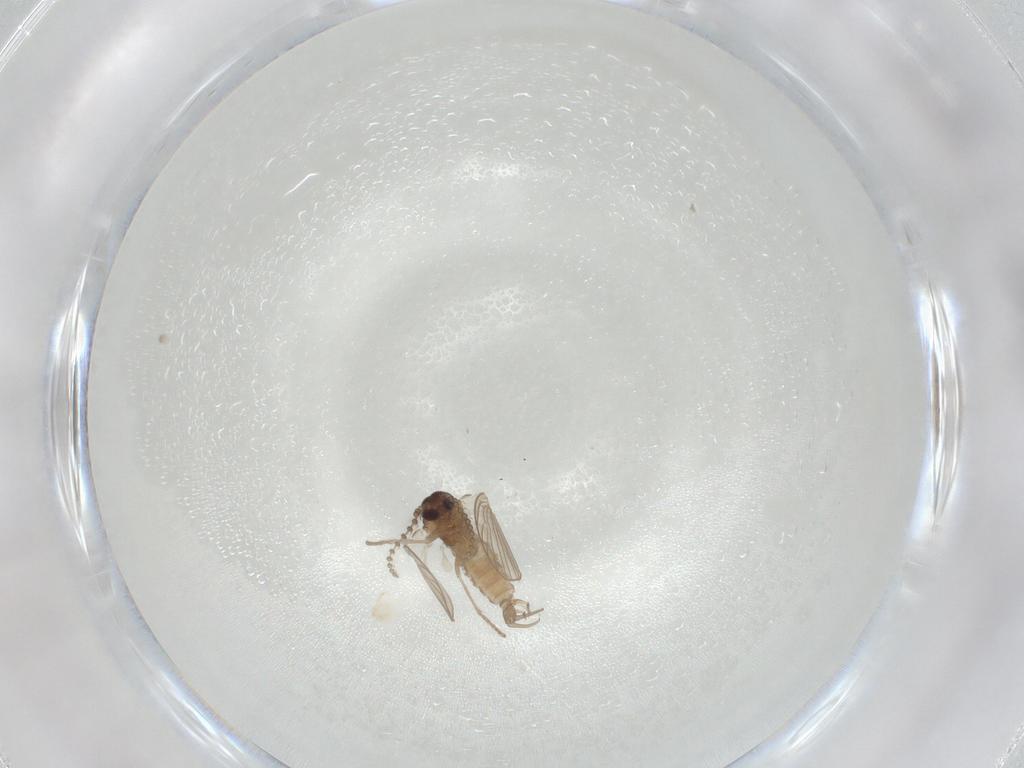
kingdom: Animalia
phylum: Arthropoda
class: Insecta
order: Diptera
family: Psychodidae
